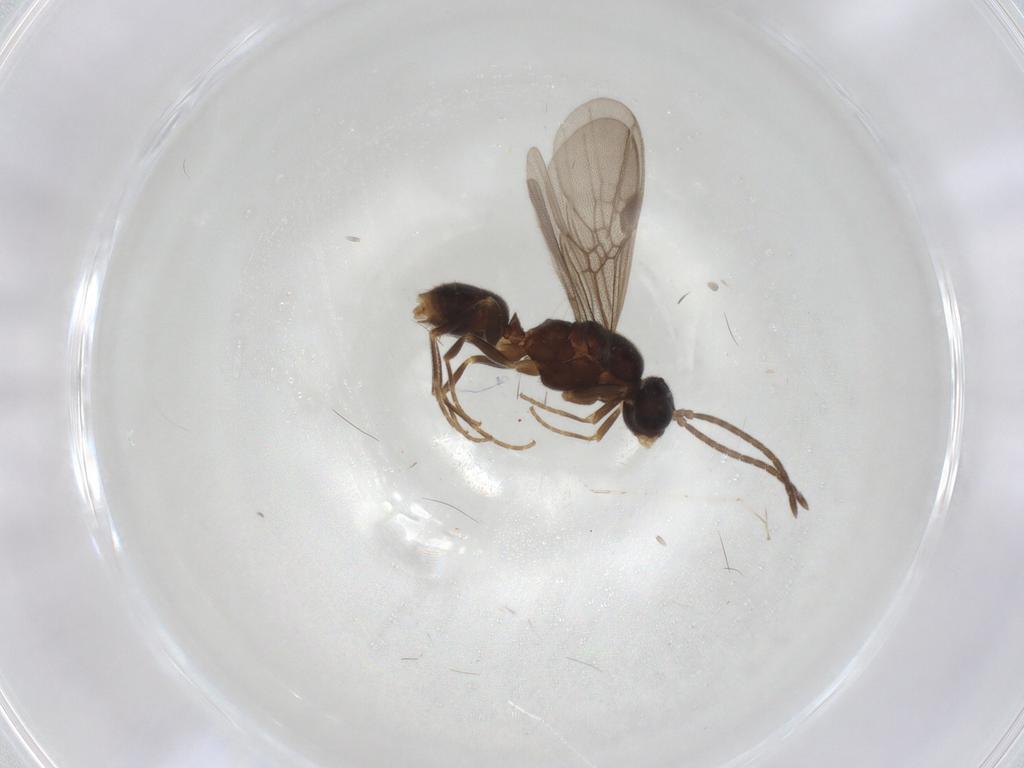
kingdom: Animalia
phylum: Arthropoda
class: Insecta
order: Hymenoptera
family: Formicidae
